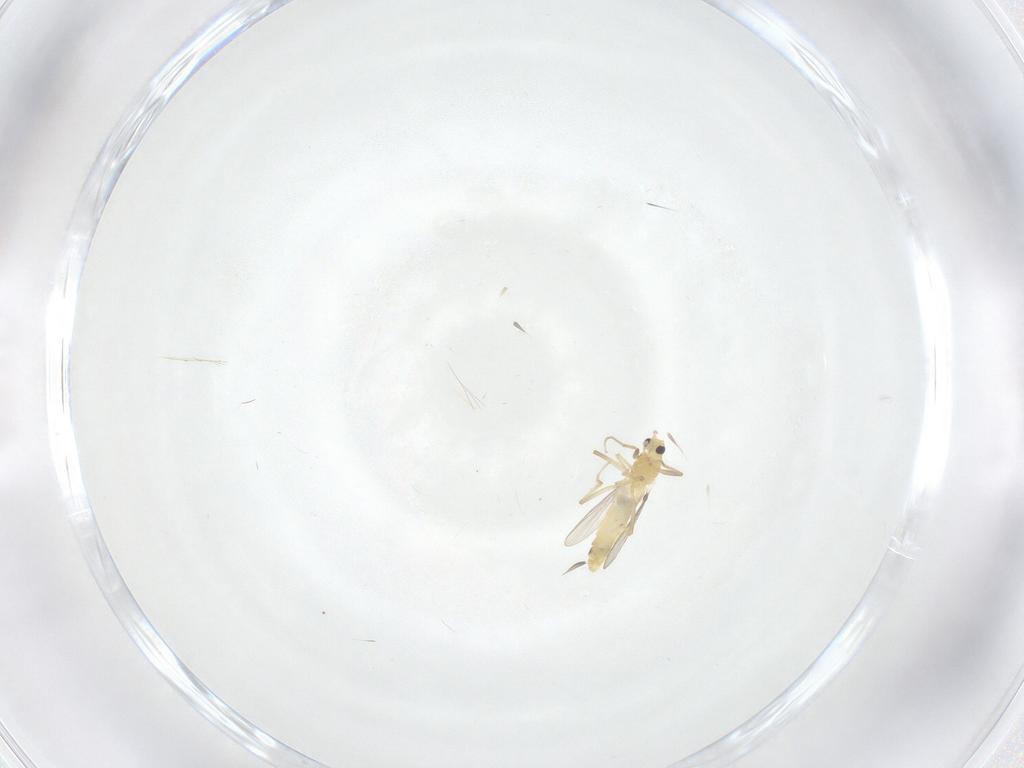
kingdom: Animalia
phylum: Arthropoda
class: Insecta
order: Diptera
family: Chironomidae
